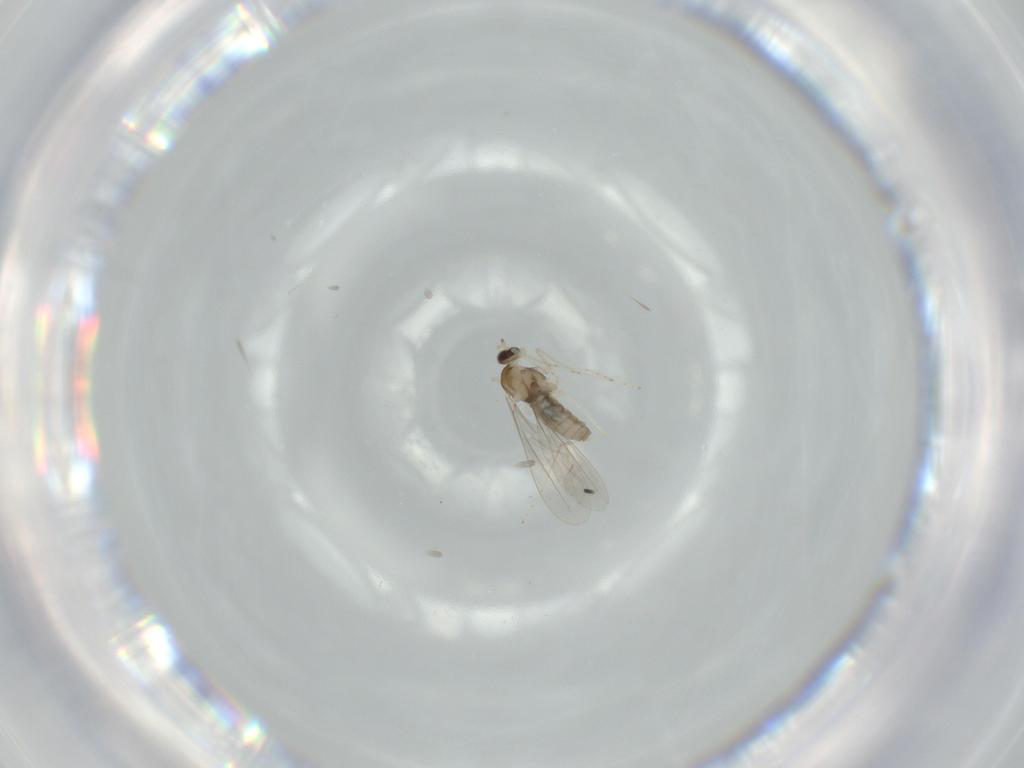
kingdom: Animalia
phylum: Arthropoda
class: Insecta
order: Diptera
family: Cecidomyiidae
